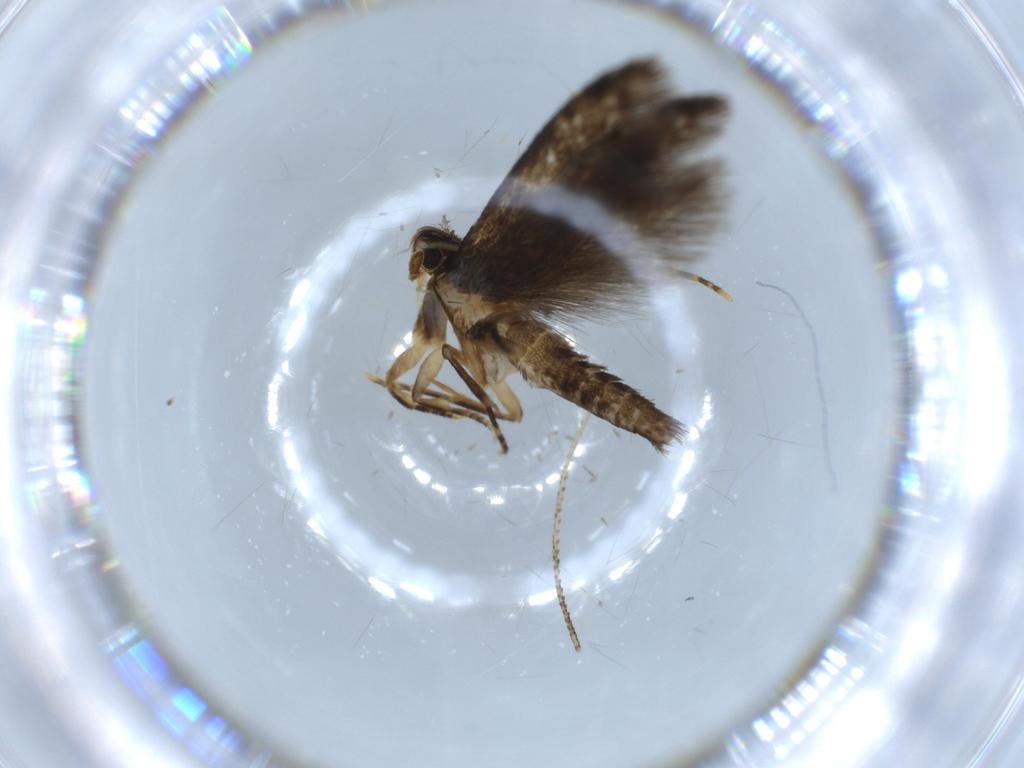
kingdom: Animalia
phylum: Arthropoda
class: Insecta
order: Lepidoptera
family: Tineidae
